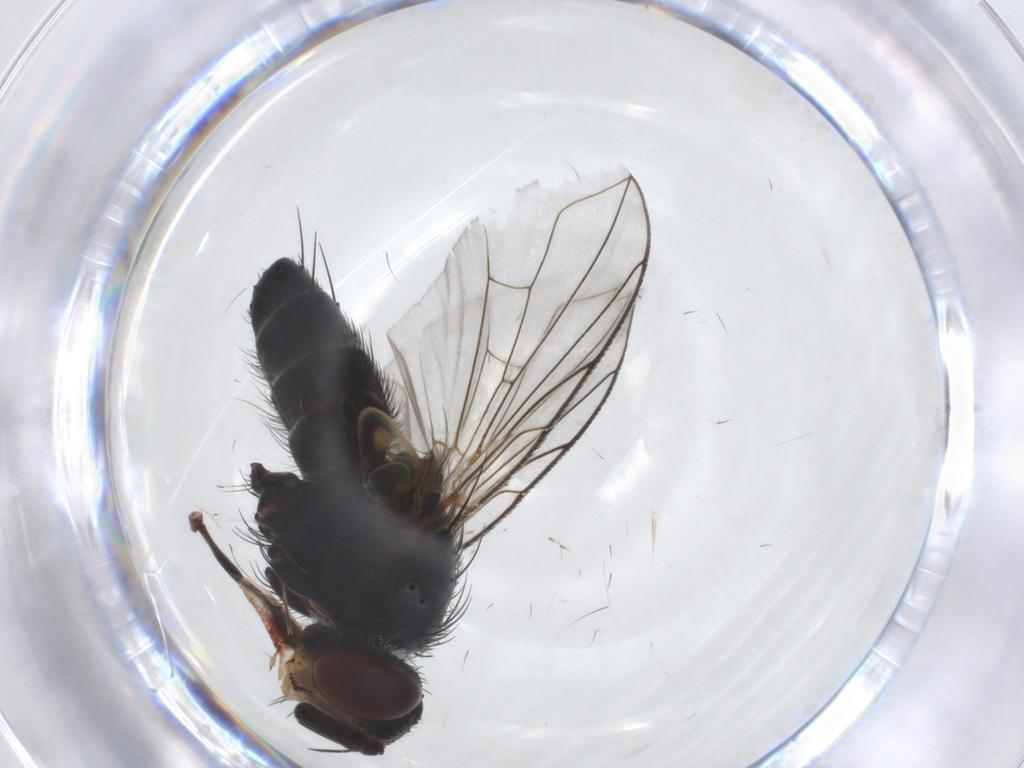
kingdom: Animalia
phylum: Arthropoda
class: Insecta
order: Diptera
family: Tachinidae
